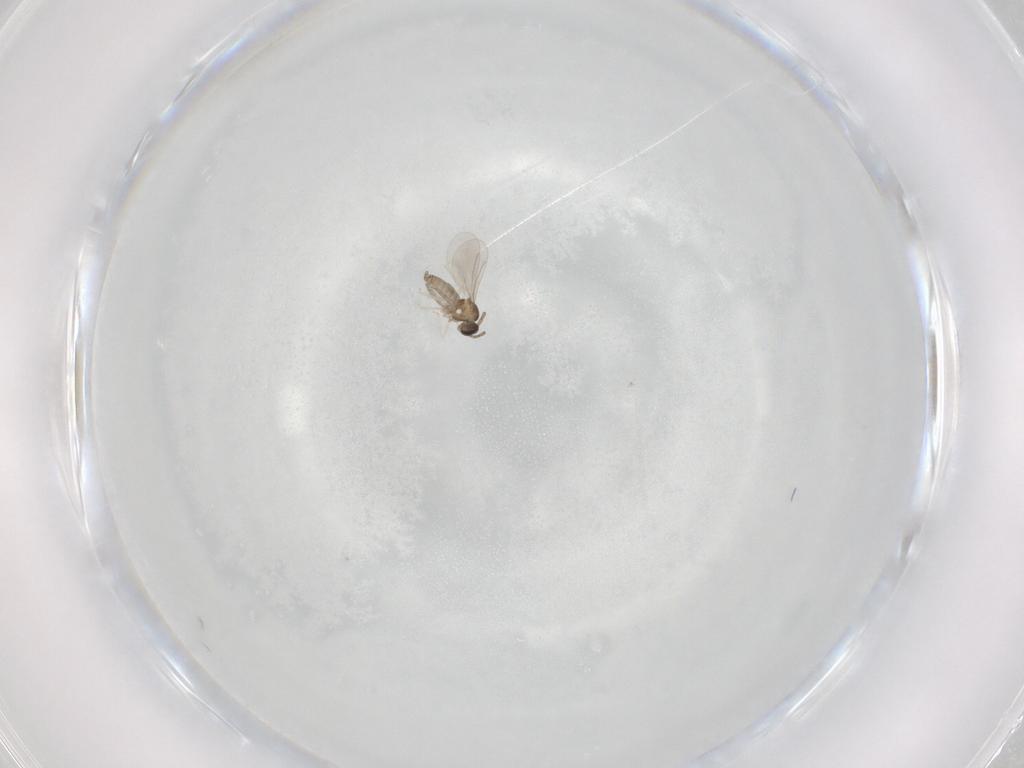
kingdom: Animalia
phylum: Arthropoda
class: Insecta
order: Diptera
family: Cecidomyiidae
